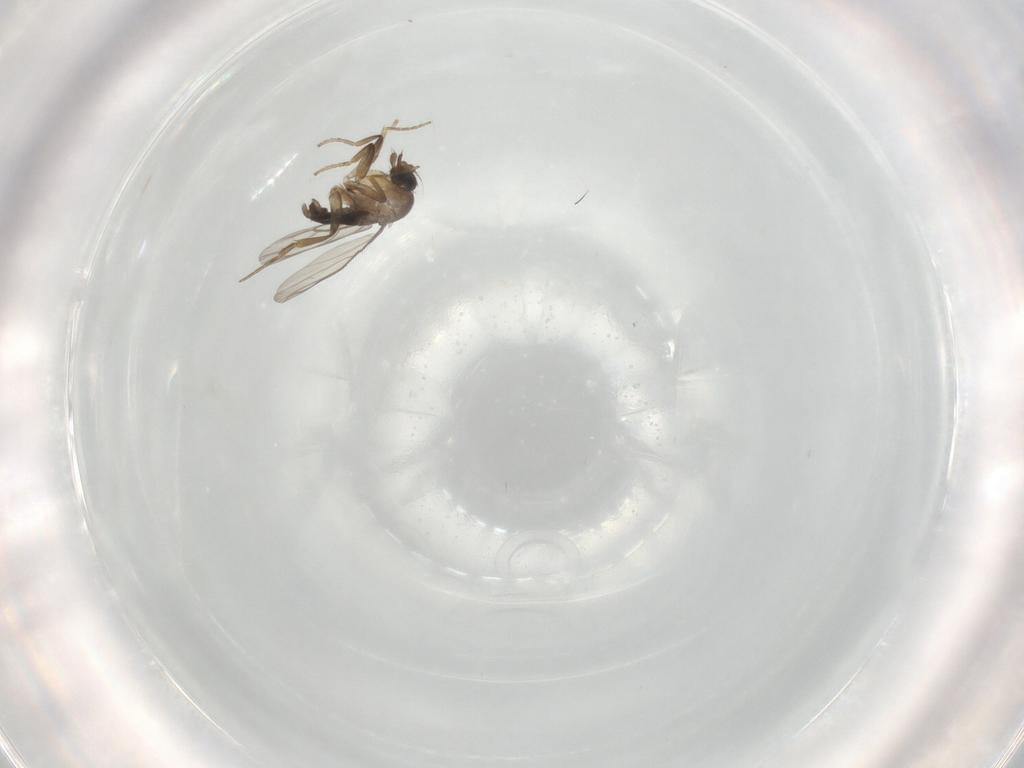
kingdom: Animalia
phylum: Arthropoda
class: Insecta
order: Diptera
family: Limoniidae
